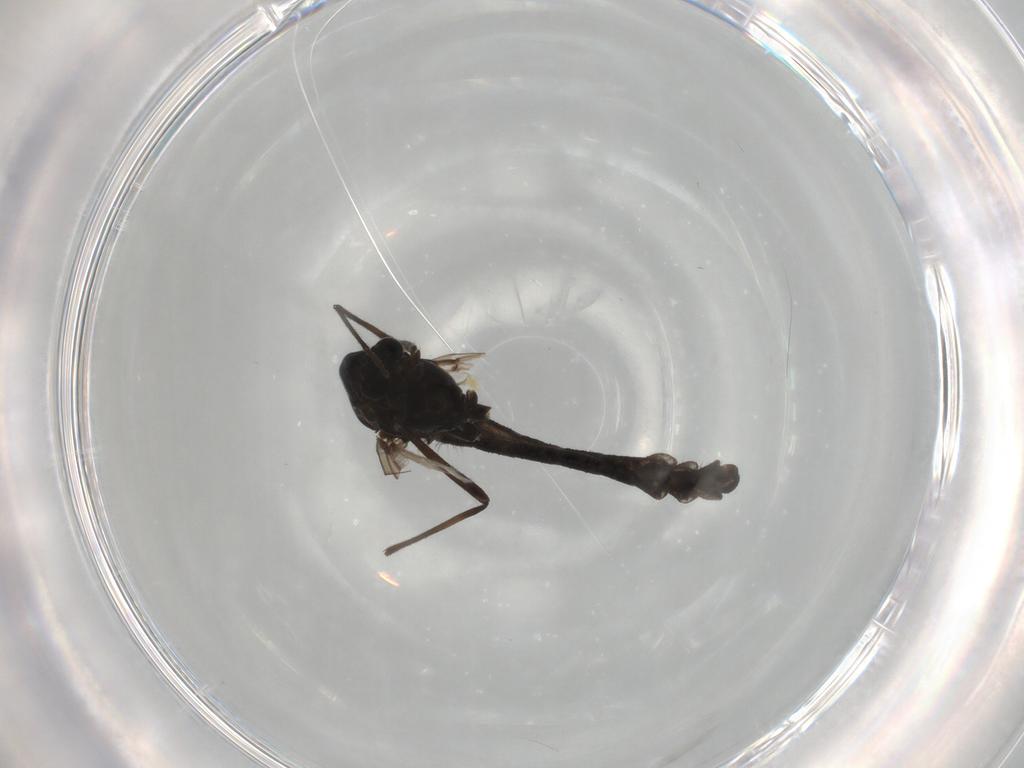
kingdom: Animalia
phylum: Arthropoda
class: Insecta
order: Diptera
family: Chironomidae
